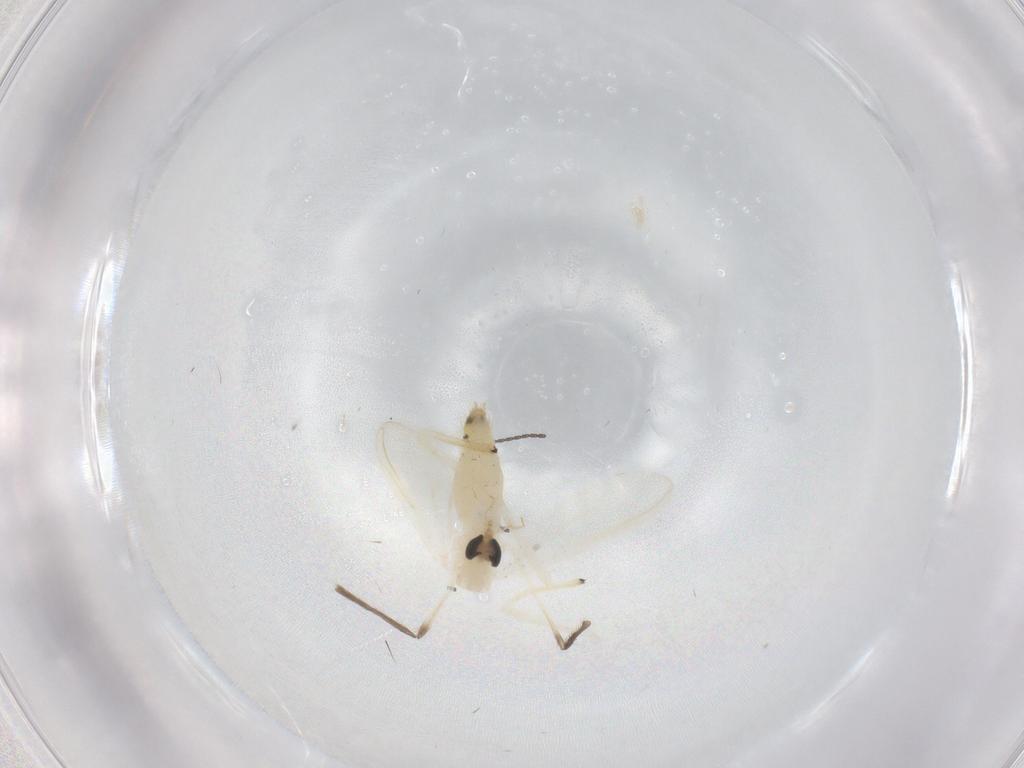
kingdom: Animalia
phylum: Arthropoda
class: Insecta
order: Diptera
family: Chironomidae
